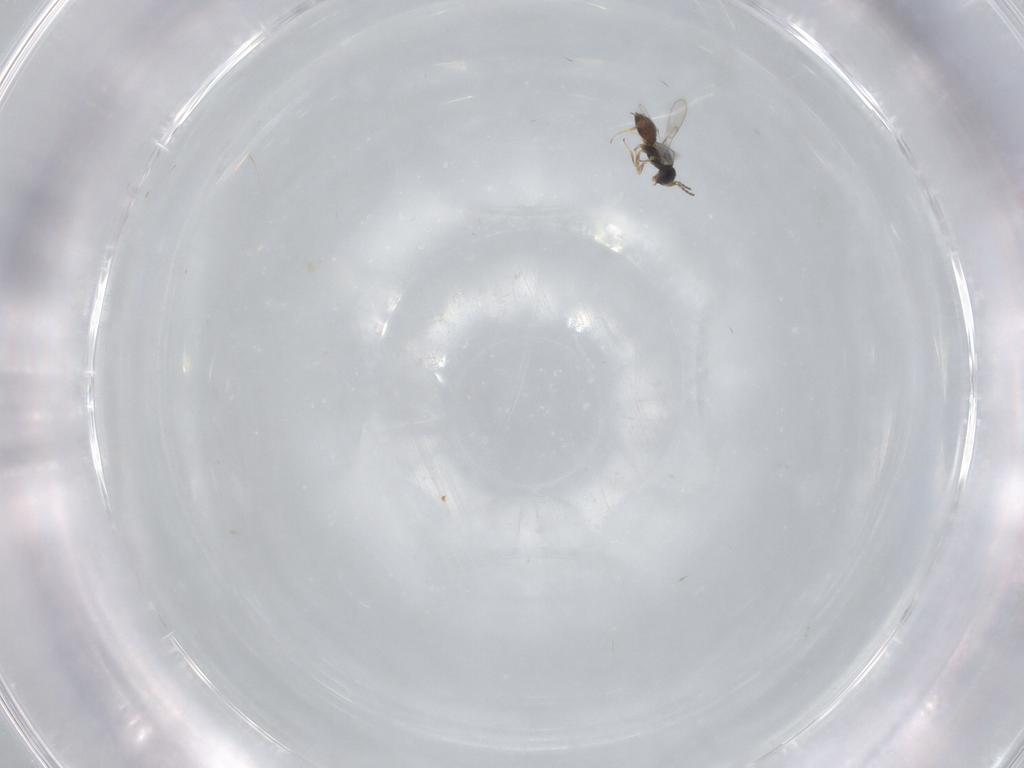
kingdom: Animalia
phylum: Arthropoda
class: Insecta
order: Hymenoptera
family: Scelionidae
